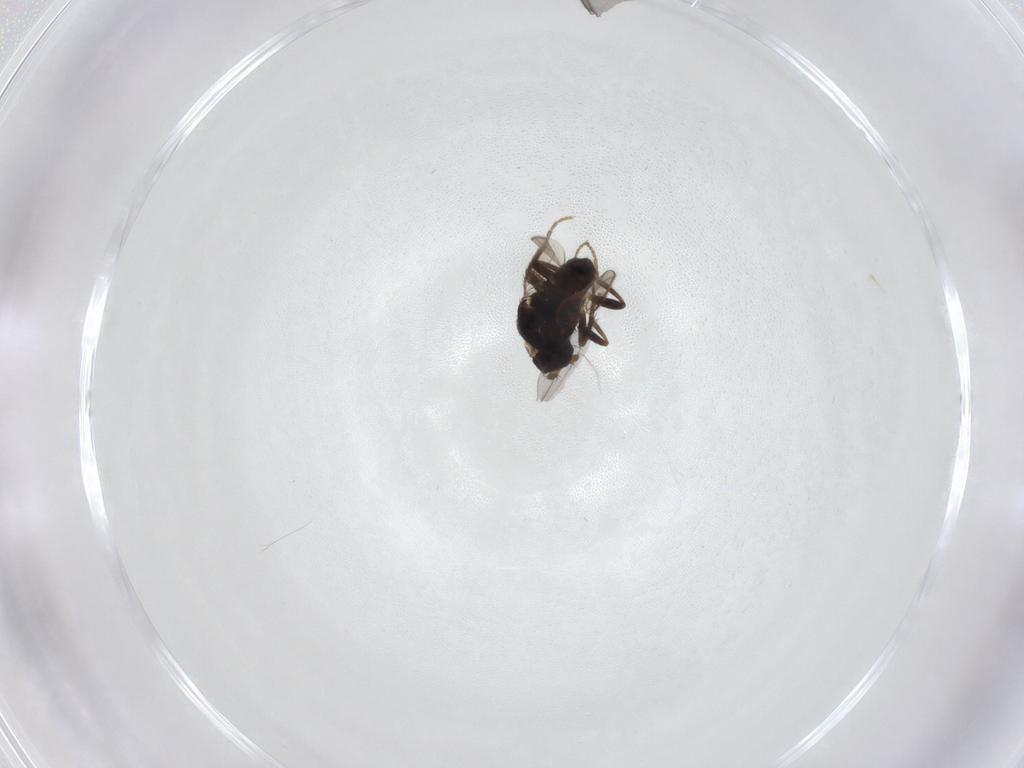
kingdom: Animalia
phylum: Arthropoda
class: Insecta
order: Diptera
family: Sphaeroceridae
